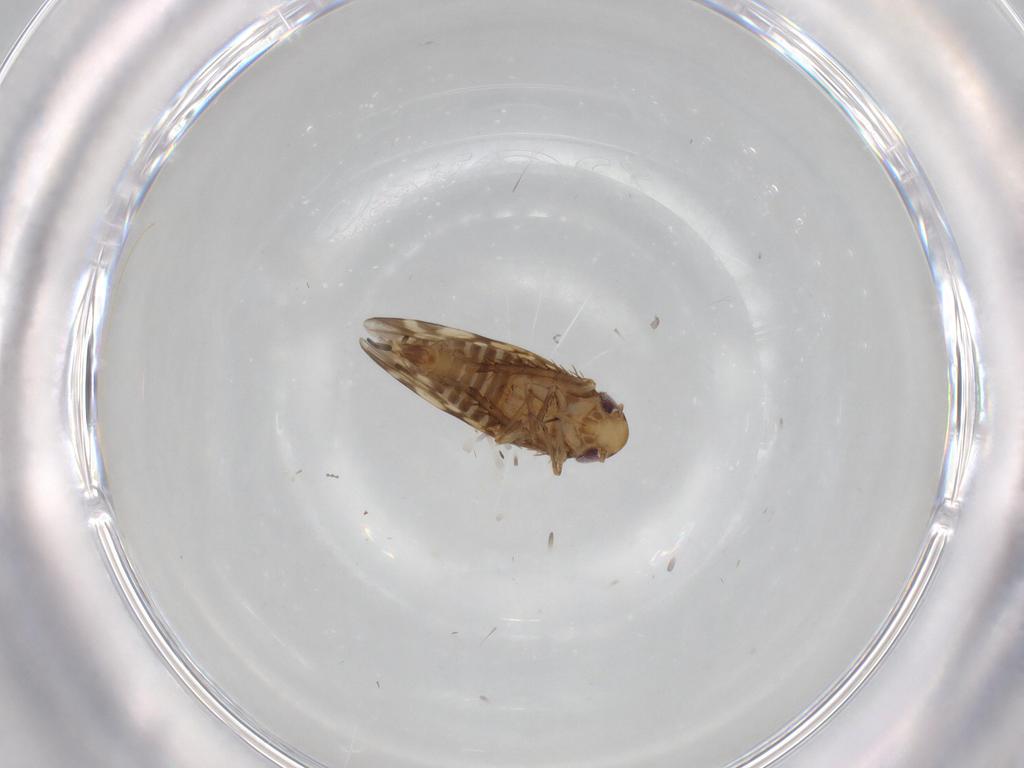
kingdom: Animalia
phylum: Arthropoda
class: Insecta
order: Hemiptera
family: Cicadellidae
